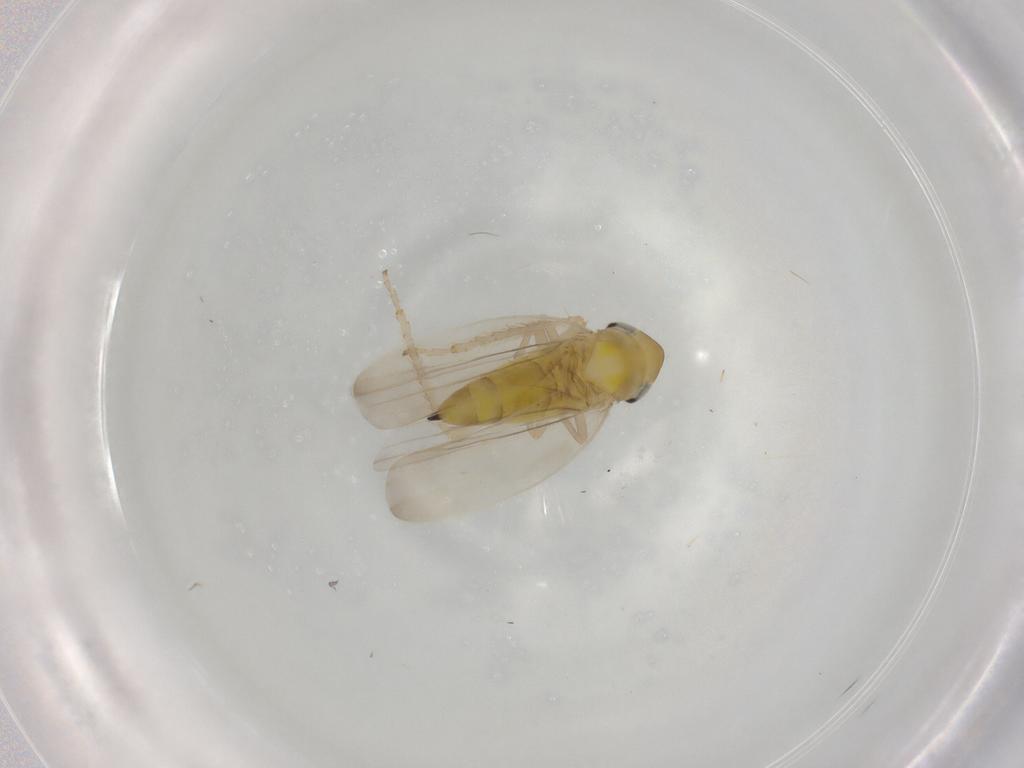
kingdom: Animalia
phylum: Arthropoda
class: Insecta
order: Hemiptera
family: Cicadellidae
